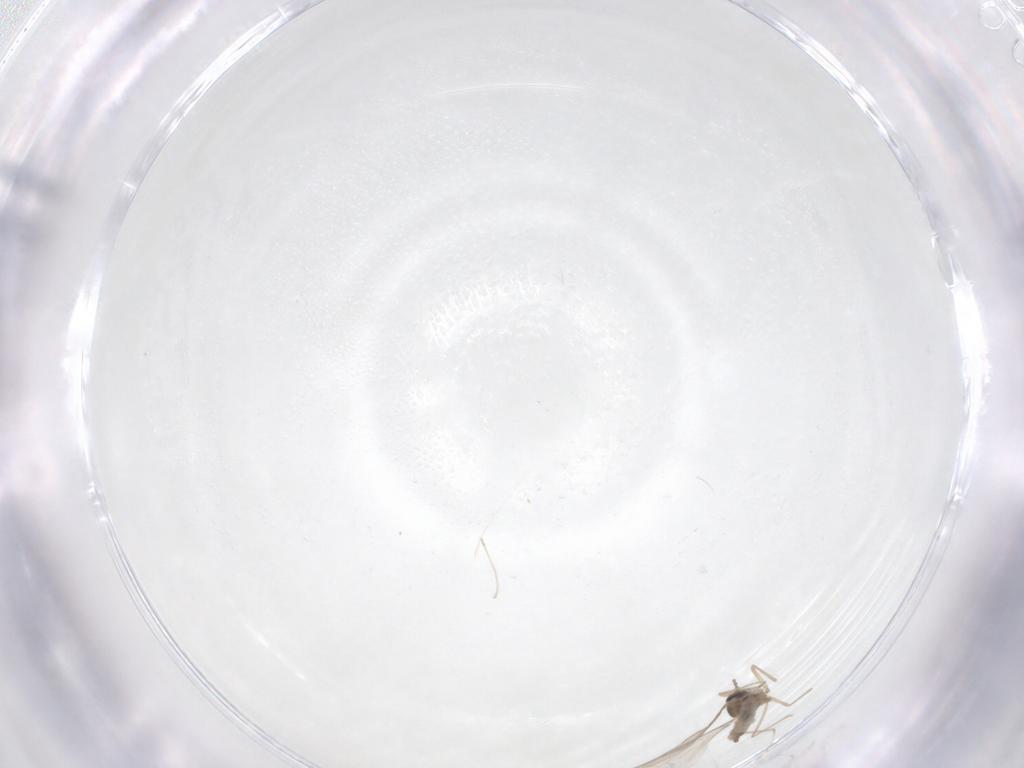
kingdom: Animalia
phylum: Arthropoda
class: Insecta
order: Diptera
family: Cecidomyiidae
